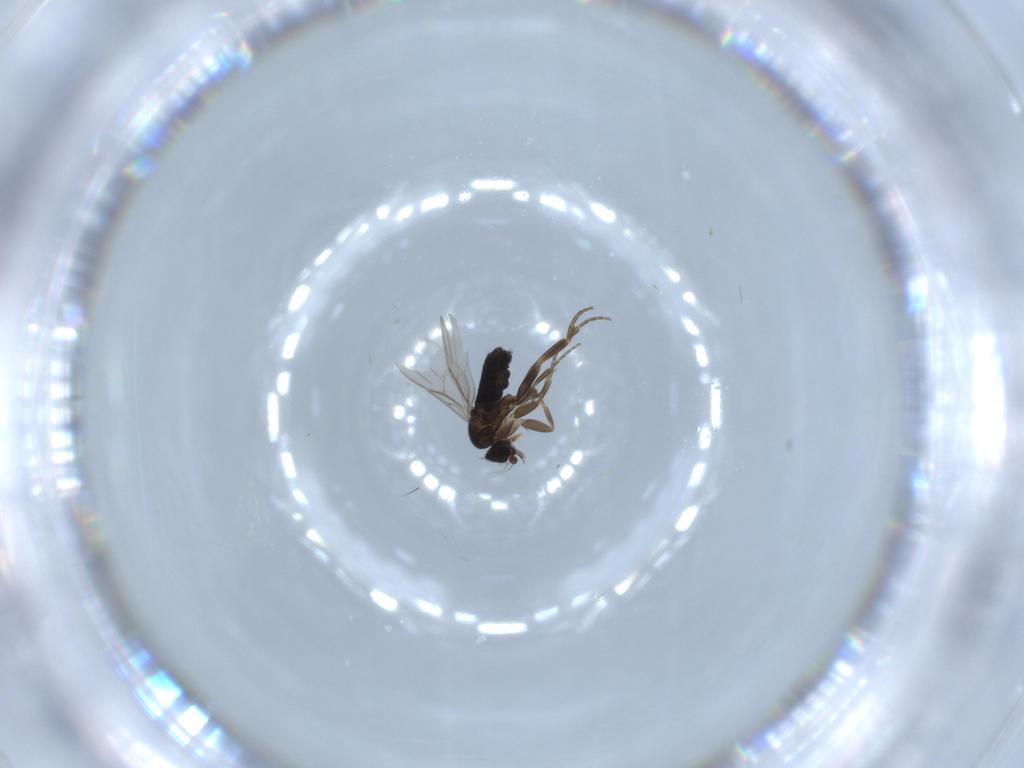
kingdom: Animalia
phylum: Arthropoda
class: Insecta
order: Diptera
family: Phoridae
